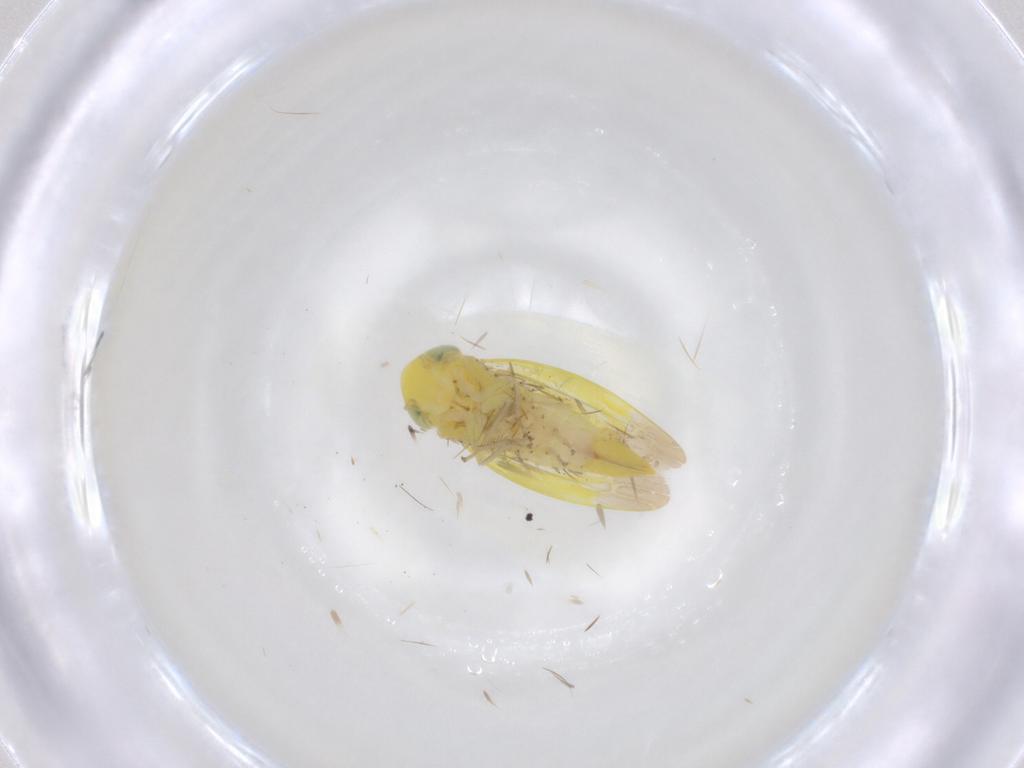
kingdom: Animalia
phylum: Arthropoda
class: Insecta
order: Hemiptera
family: Cicadellidae
